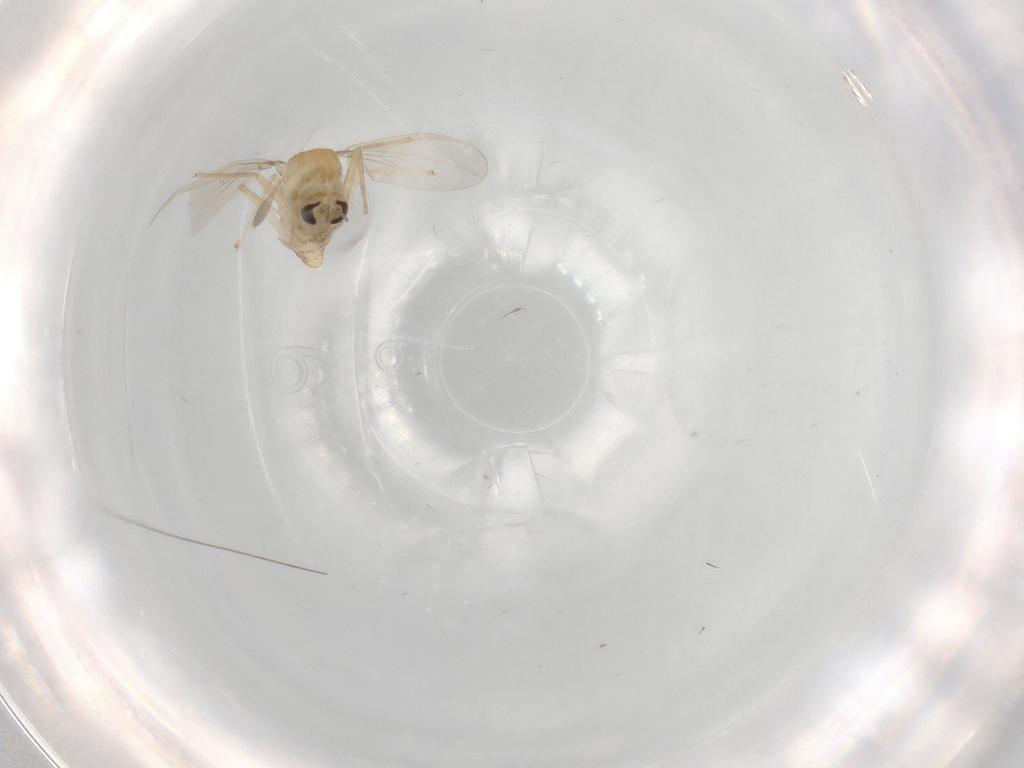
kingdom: Animalia
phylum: Arthropoda
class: Insecta
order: Diptera
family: Chironomidae
